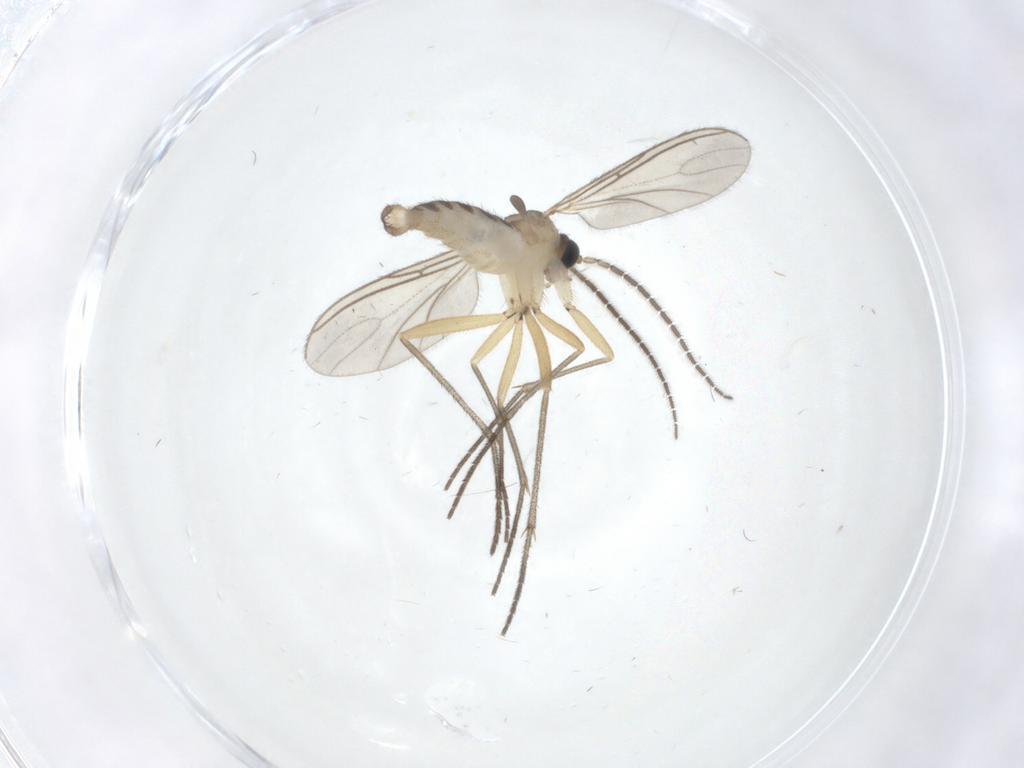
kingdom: Animalia
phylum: Arthropoda
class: Insecta
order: Diptera
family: Sciaridae
